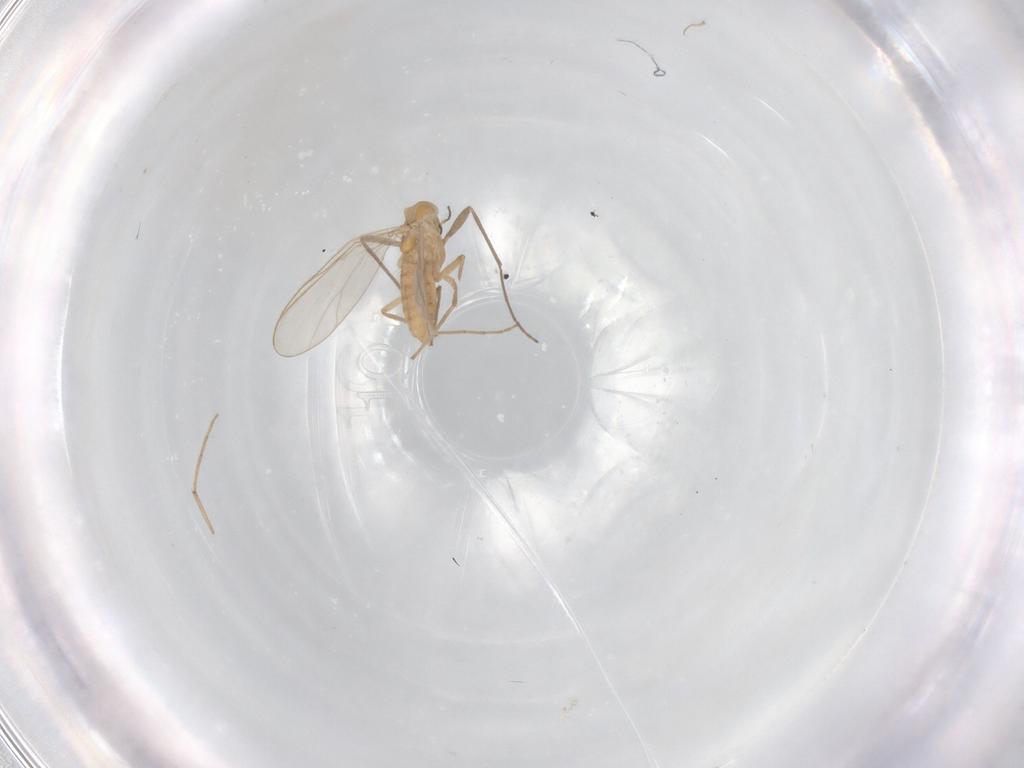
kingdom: Animalia
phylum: Arthropoda
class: Insecta
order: Diptera
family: Chironomidae
